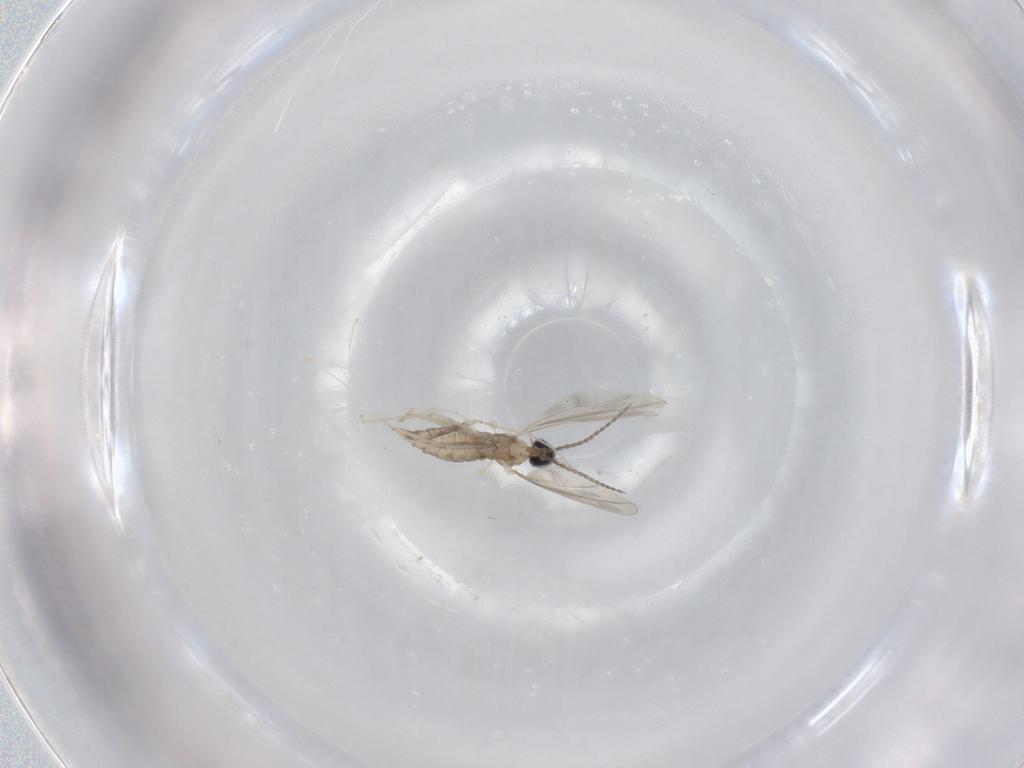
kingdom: Animalia
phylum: Arthropoda
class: Insecta
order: Diptera
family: Cecidomyiidae
